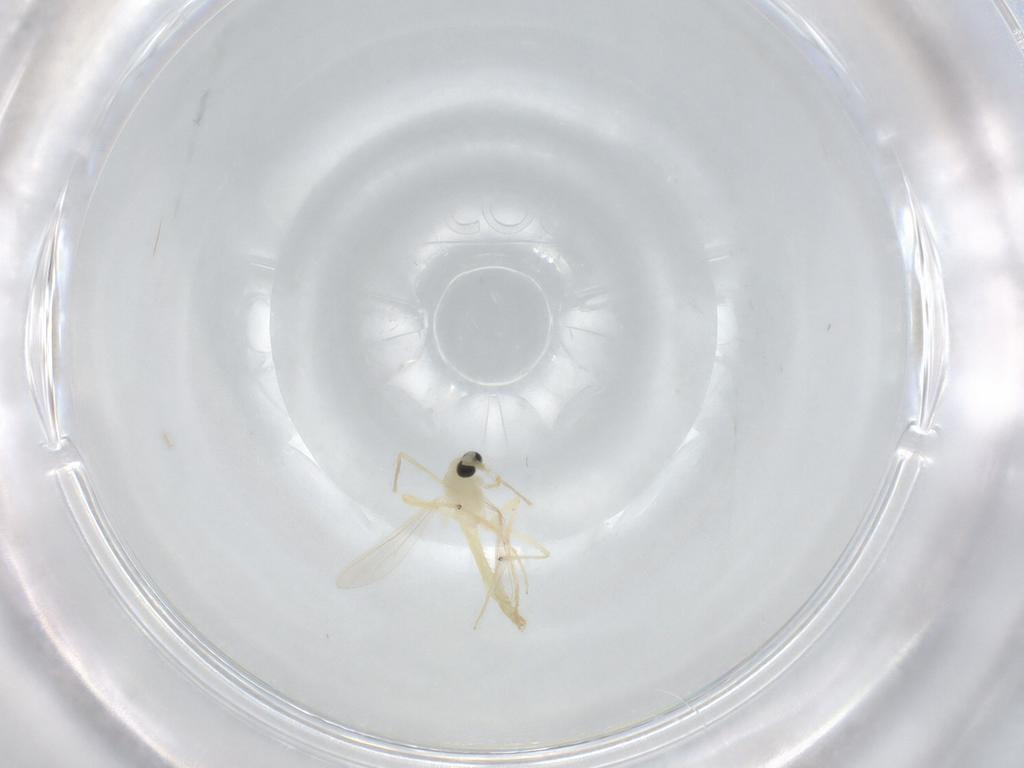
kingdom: Animalia
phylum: Arthropoda
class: Insecta
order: Diptera
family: Chironomidae
